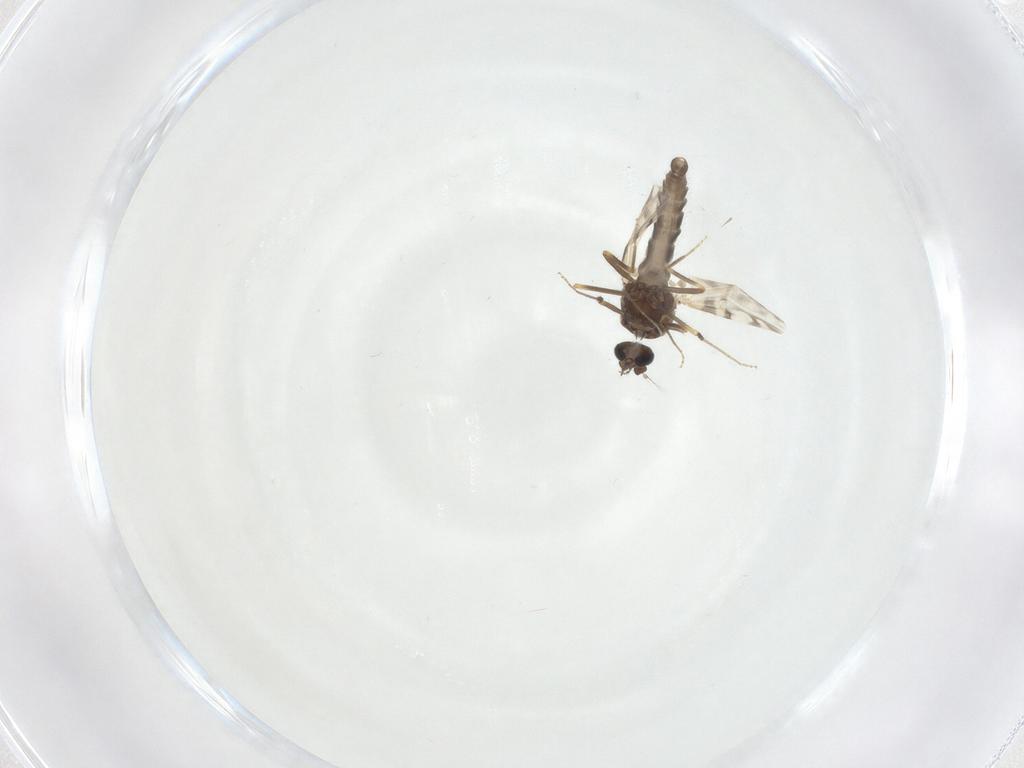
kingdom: Animalia
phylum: Arthropoda
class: Insecta
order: Diptera
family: Ceratopogonidae
